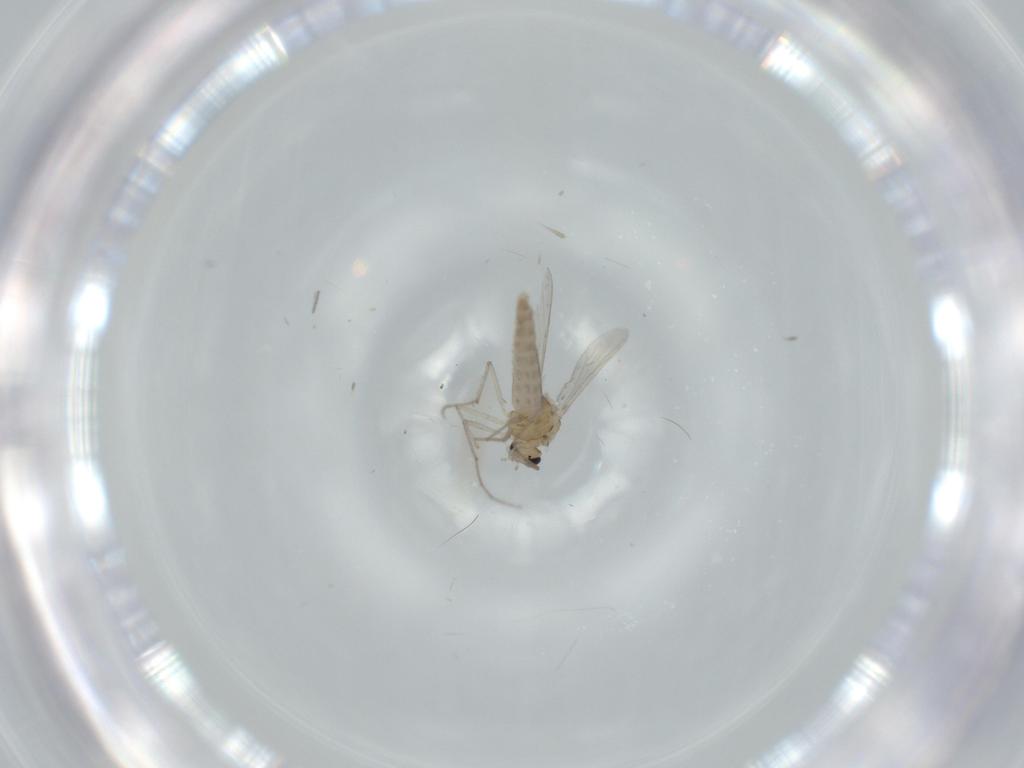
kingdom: Animalia
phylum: Arthropoda
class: Insecta
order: Diptera
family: Chironomidae
